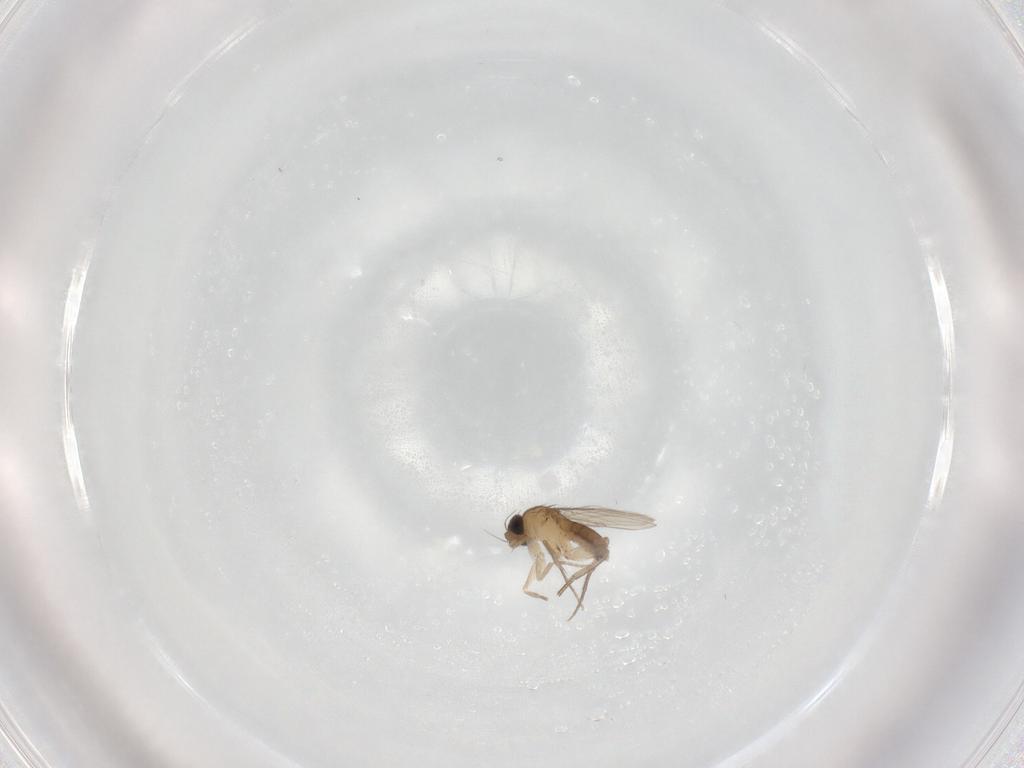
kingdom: Animalia
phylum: Arthropoda
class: Insecta
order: Diptera
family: Phoridae
